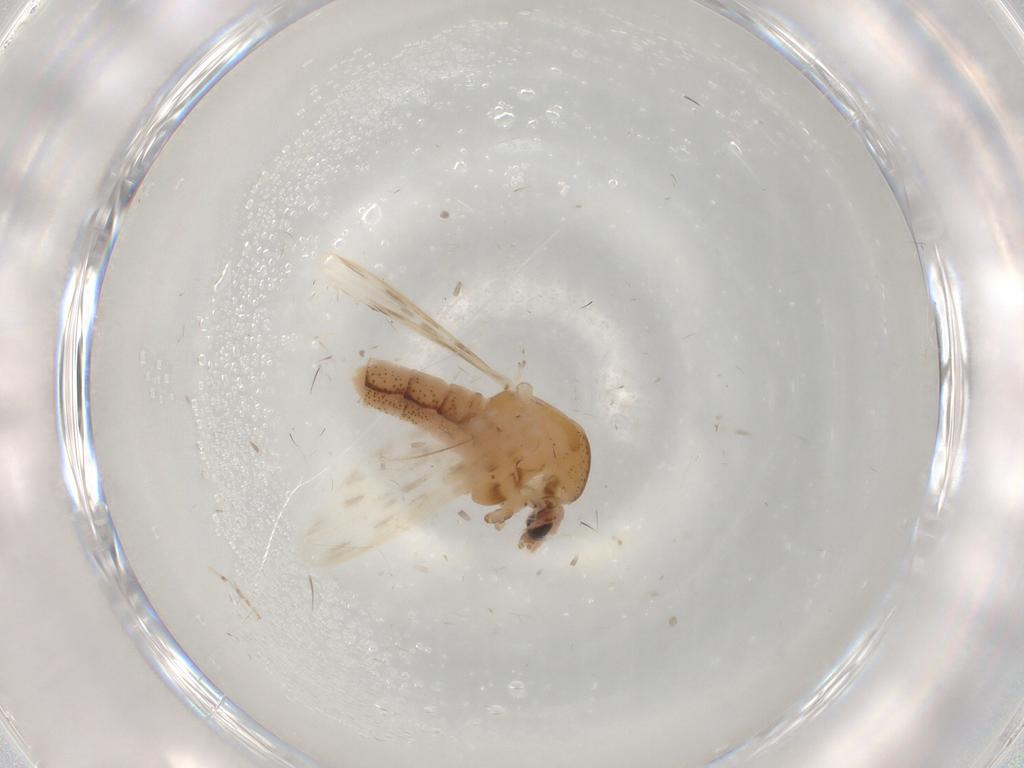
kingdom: Animalia
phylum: Arthropoda
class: Insecta
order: Diptera
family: Chaoboridae
